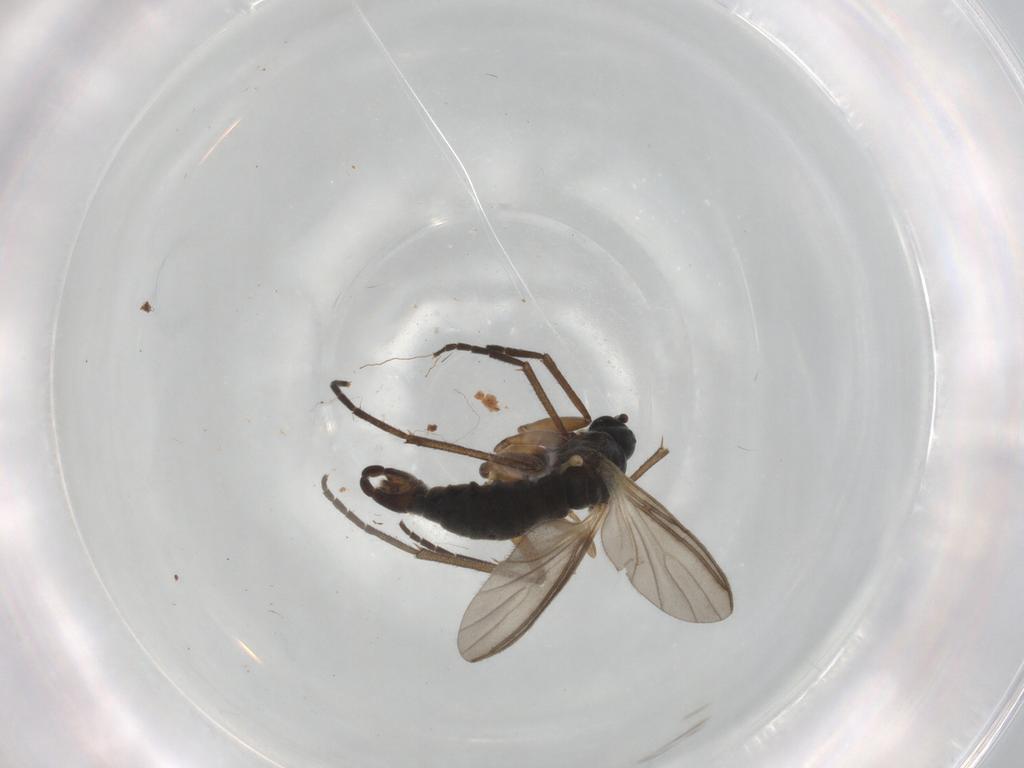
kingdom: Animalia
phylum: Arthropoda
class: Insecta
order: Diptera
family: Sciaridae
